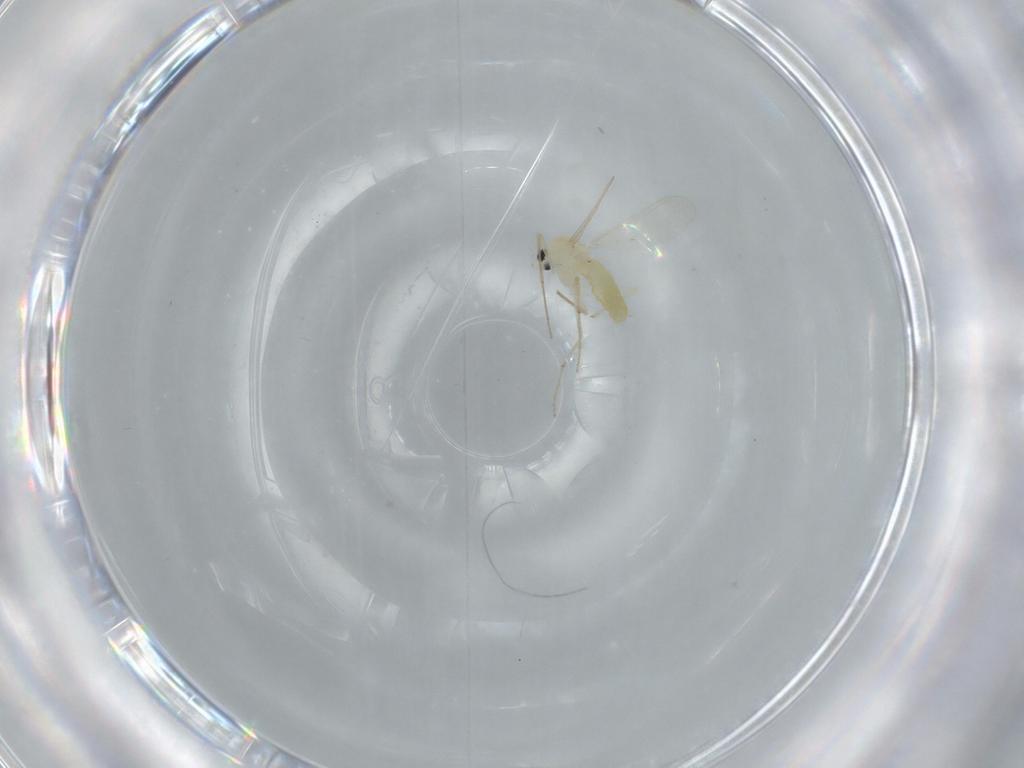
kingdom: Animalia
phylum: Arthropoda
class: Insecta
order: Diptera
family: Chironomidae
